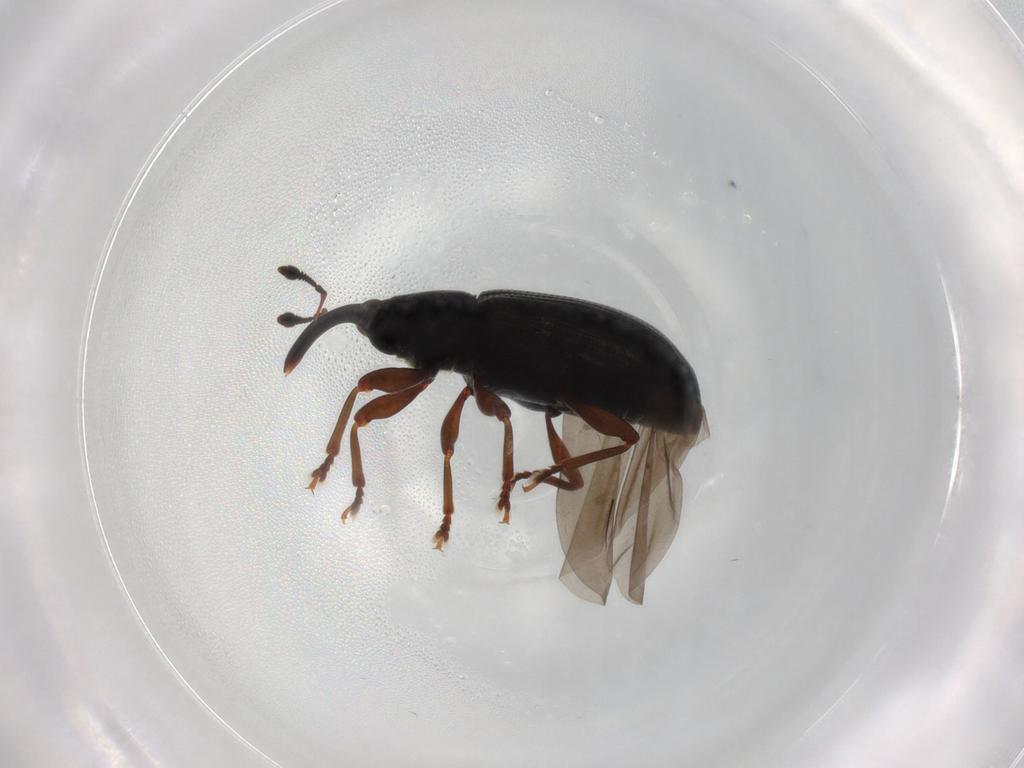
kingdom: Animalia
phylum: Arthropoda
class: Insecta
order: Coleoptera
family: Curculionidae
